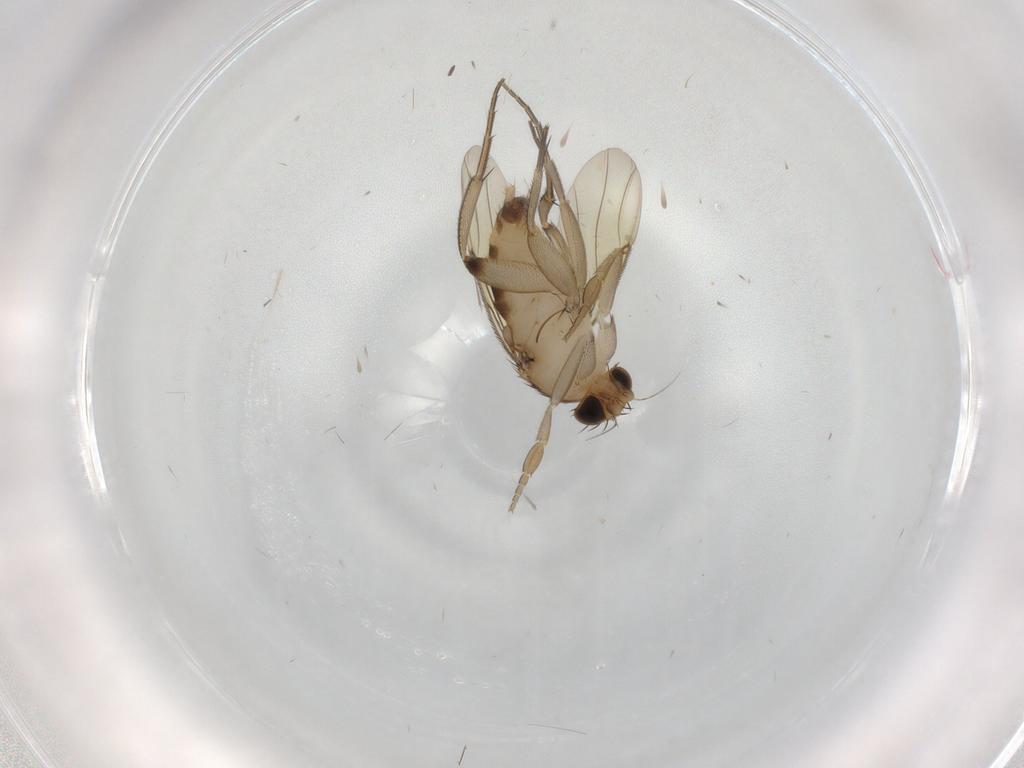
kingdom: Animalia
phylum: Arthropoda
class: Insecta
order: Diptera
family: Phoridae
